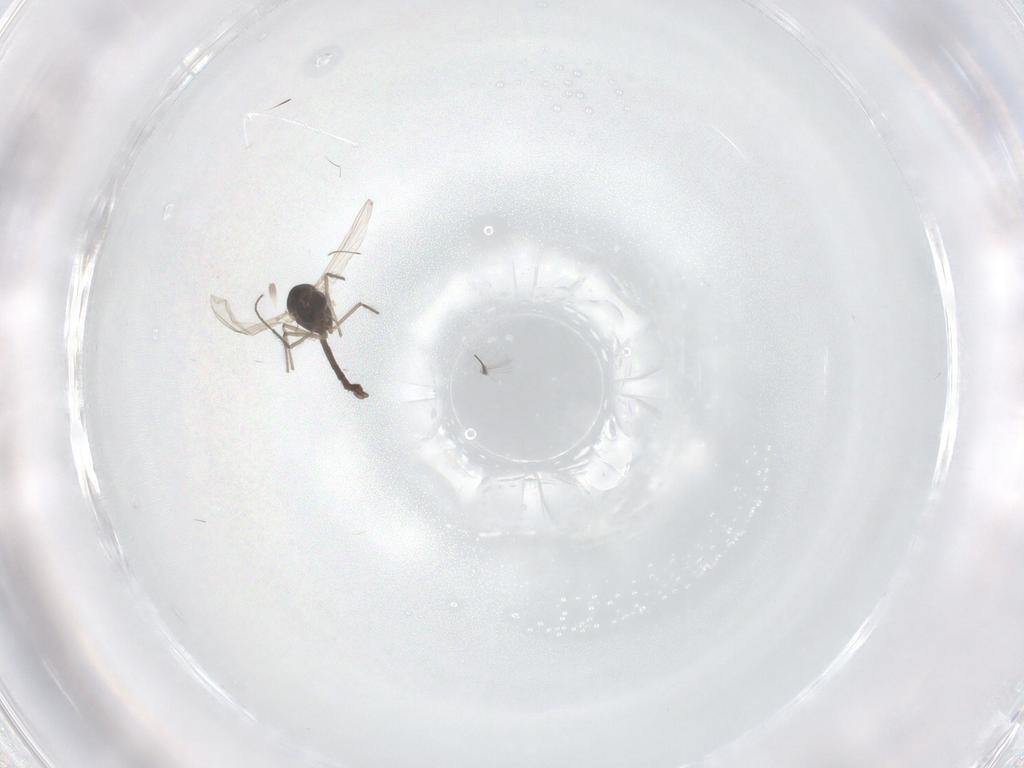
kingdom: Animalia
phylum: Arthropoda
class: Insecta
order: Diptera
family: Chironomidae
